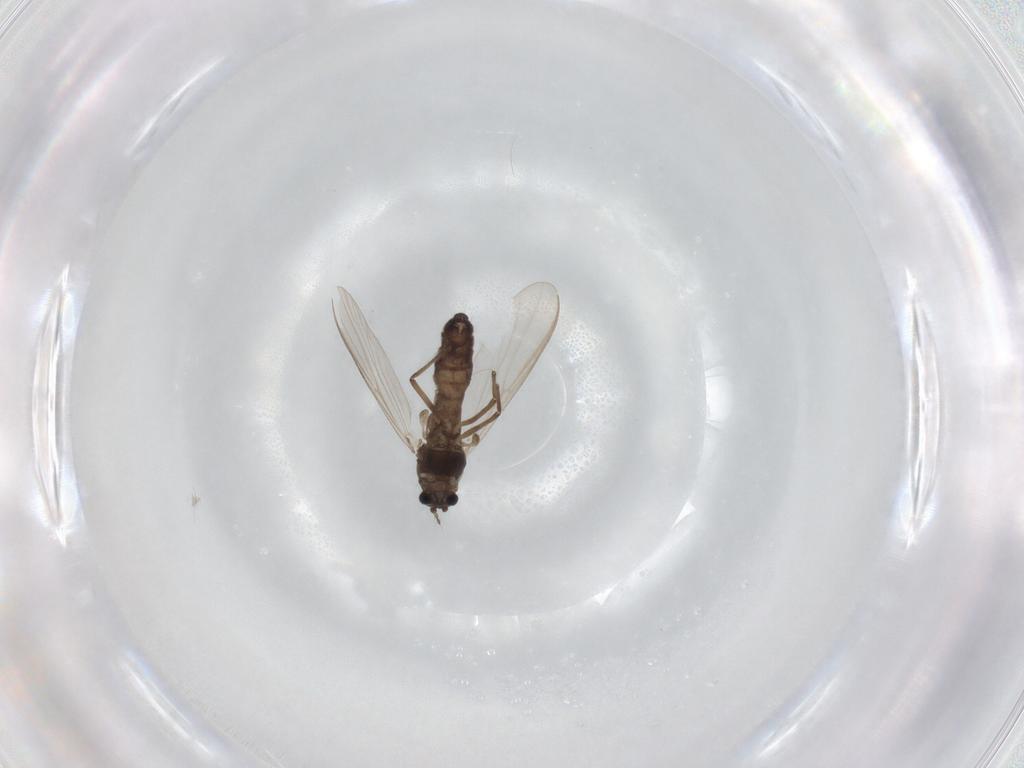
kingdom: Animalia
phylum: Arthropoda
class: Insecta
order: Diptera
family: Chironomidae
